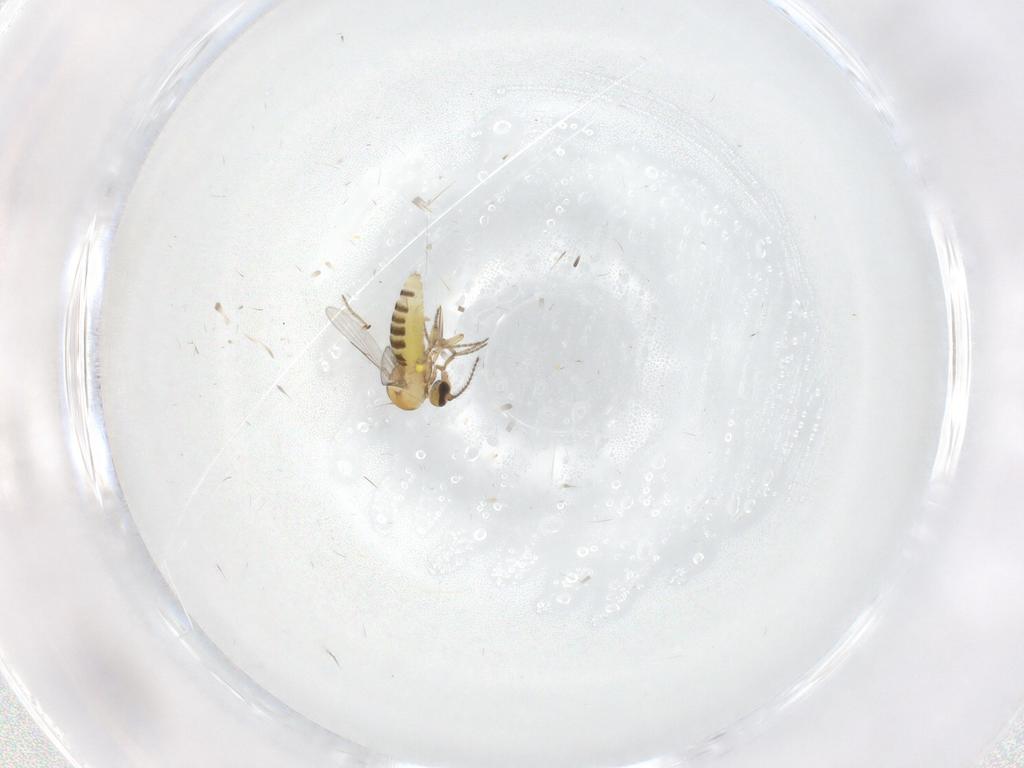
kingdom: Animalia
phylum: Arthropoda
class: Insecta
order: Diptera
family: Ceratopogonidae
